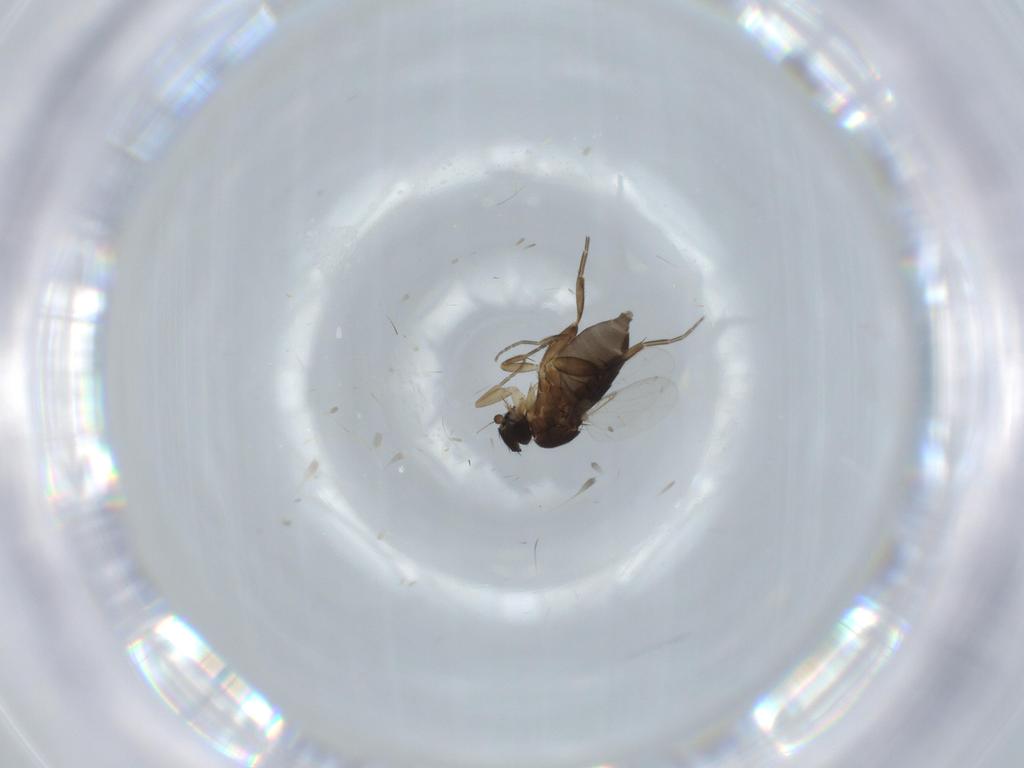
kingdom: Animalia
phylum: Arthropoda
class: Insecta
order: Diptera
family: Phoridae
